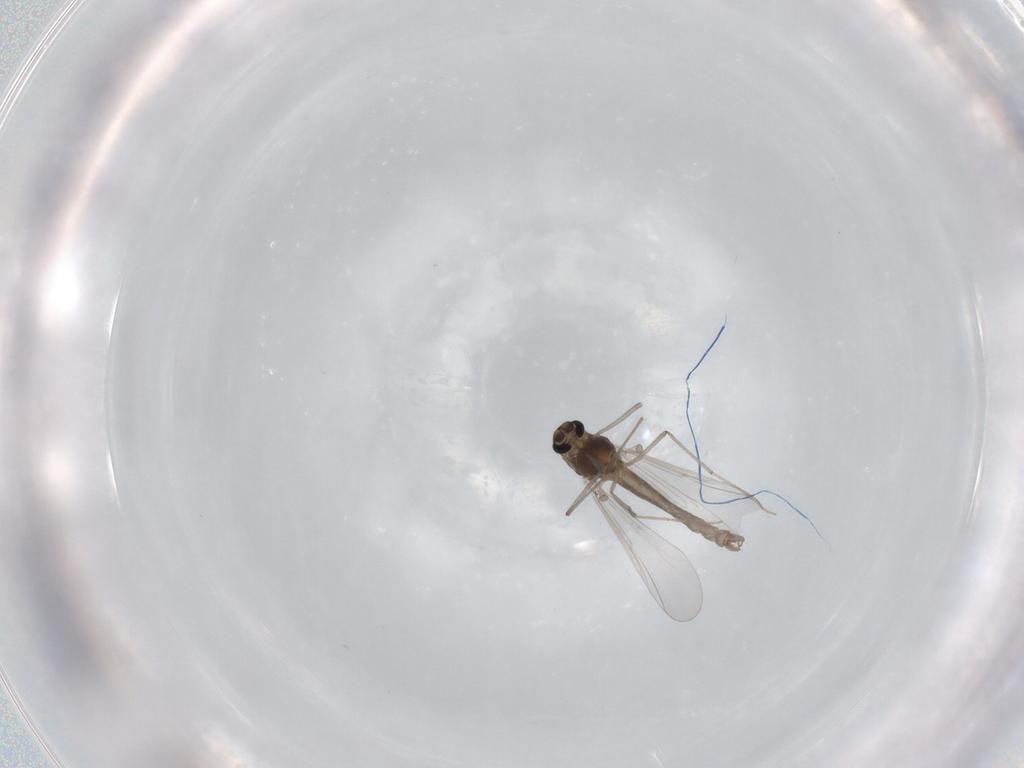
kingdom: Animalia
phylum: Arthropoda
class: Insecta
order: Diptera
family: Chironomidae
